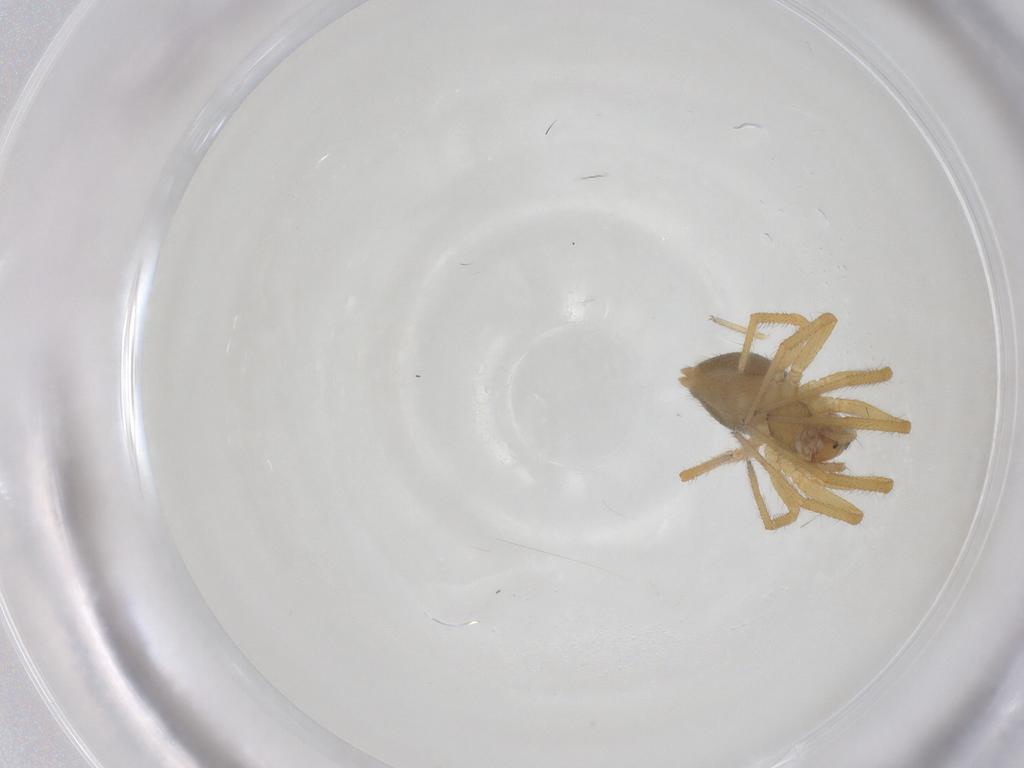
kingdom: Animalia
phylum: Arthropoda
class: Arachnida
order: Araneae
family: Linyphiidae
